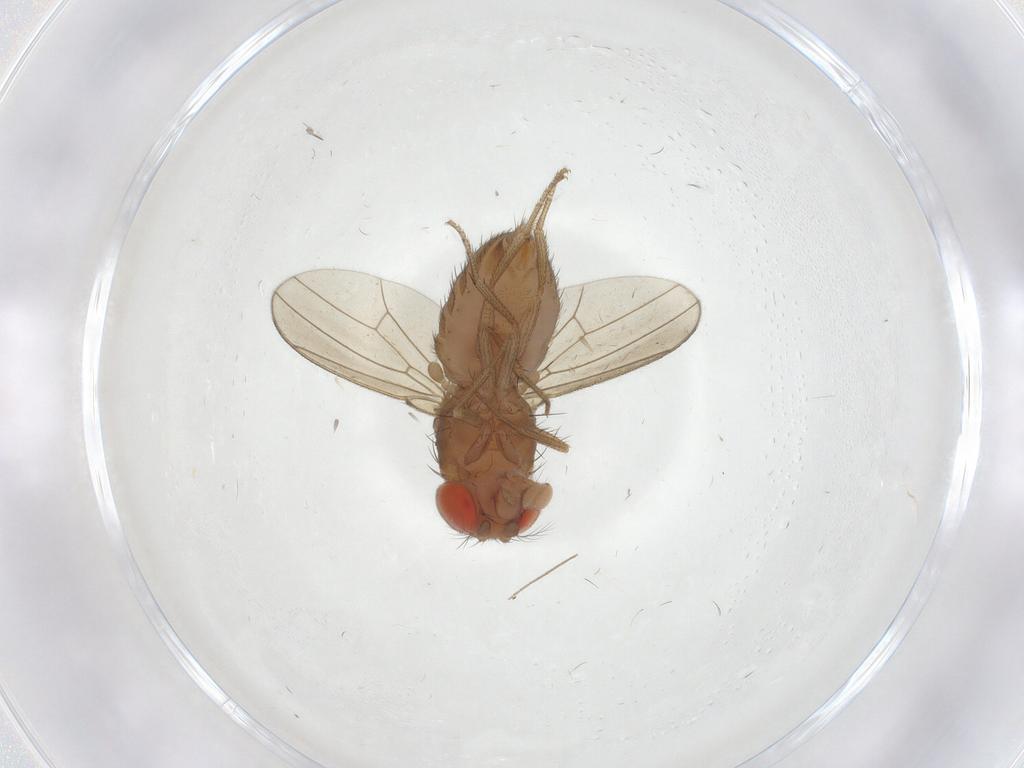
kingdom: Animalia
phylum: Arthropoda
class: Insecta
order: Diptera
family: Drosophilidae
